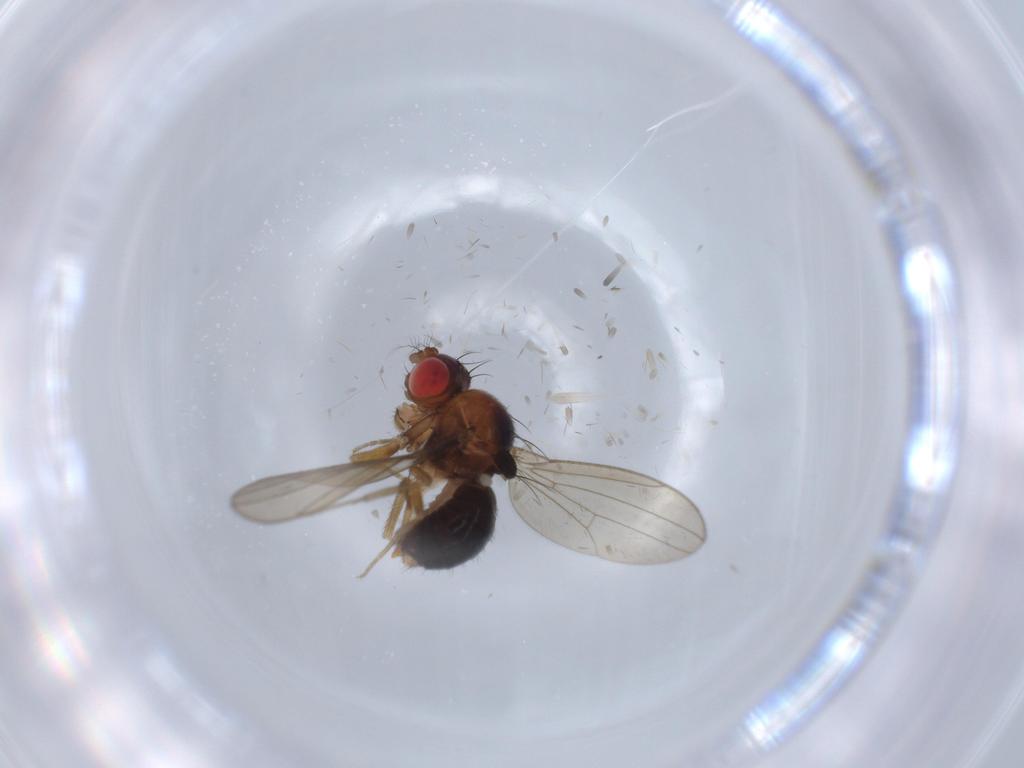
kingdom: Animalia
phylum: Arthropoda
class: Insecta
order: Diptera
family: Drosophilidae
